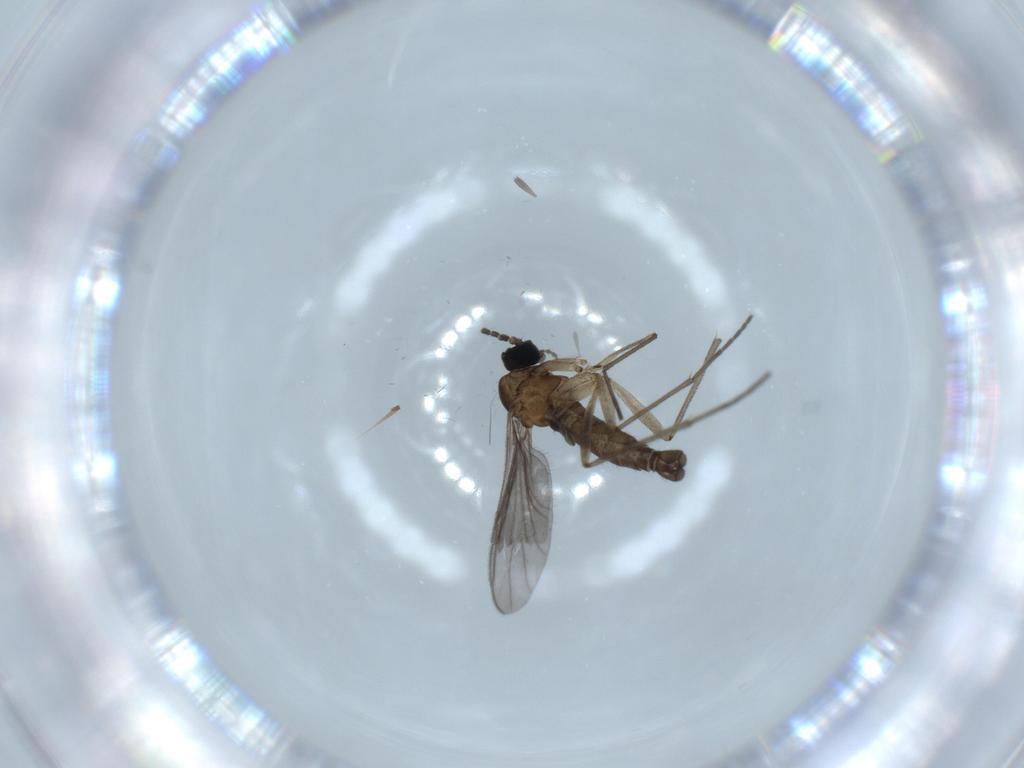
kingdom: Animalia
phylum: Arthropoda
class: Insecta
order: Diptera
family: Sciaridae
